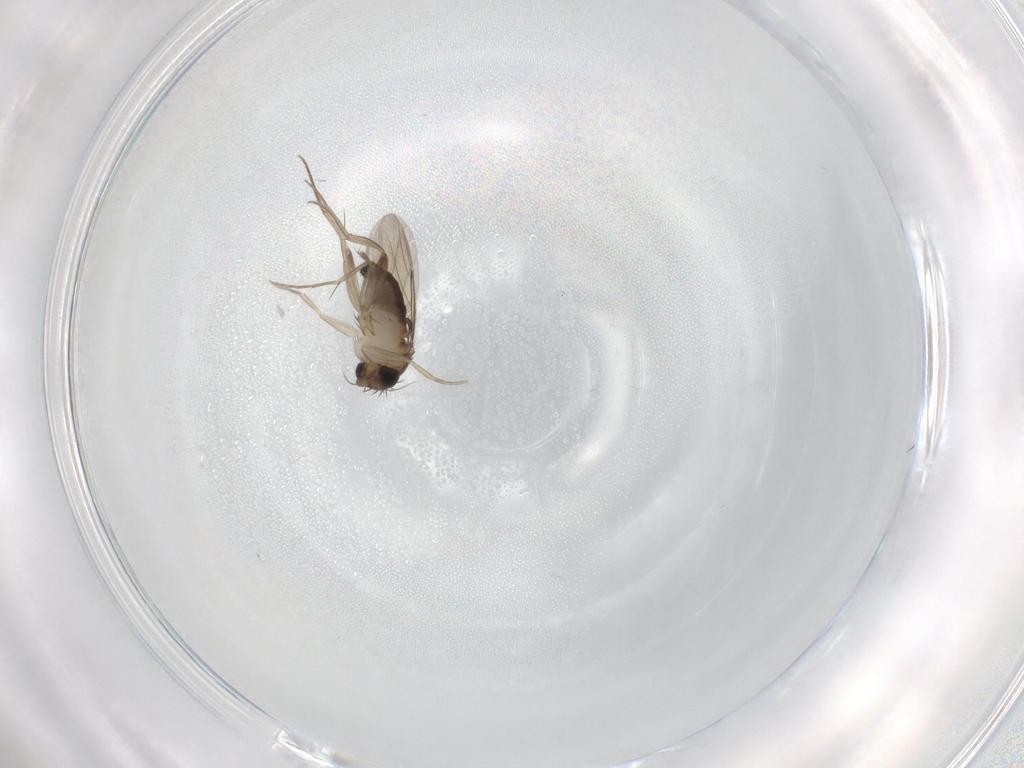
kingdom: Animalia
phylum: Arthropoda
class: Insecta
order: Diptera
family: Phoridae
